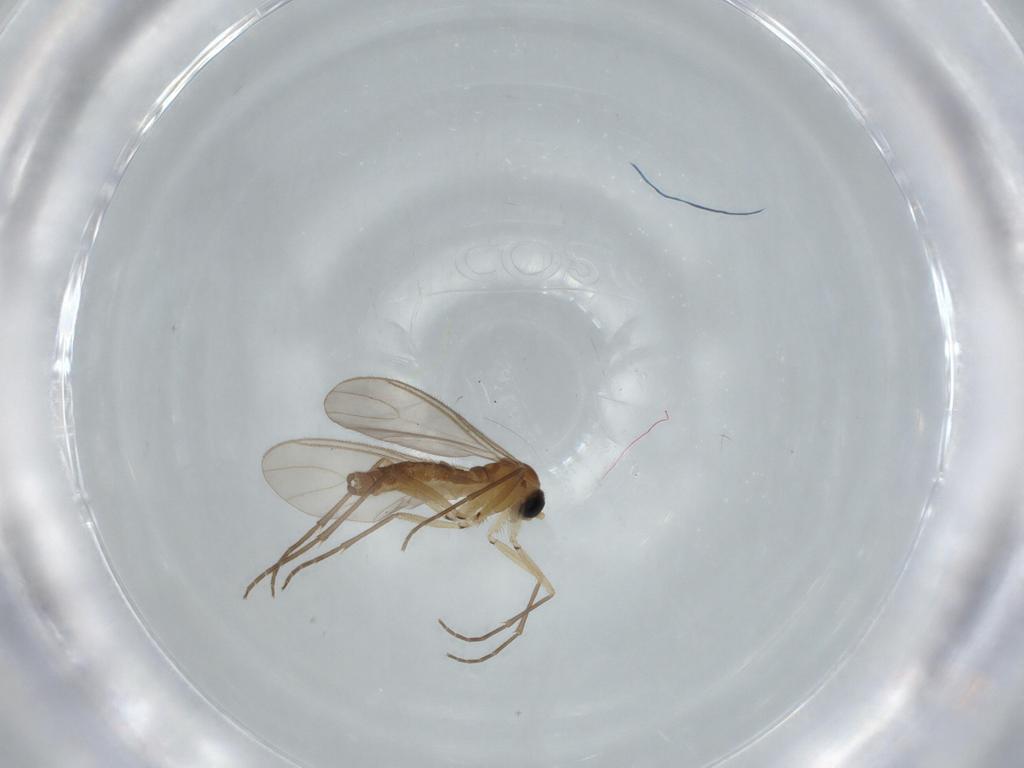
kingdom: Animalia
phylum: Arthropoda
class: Insecta
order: Diptera
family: Sciaridae
